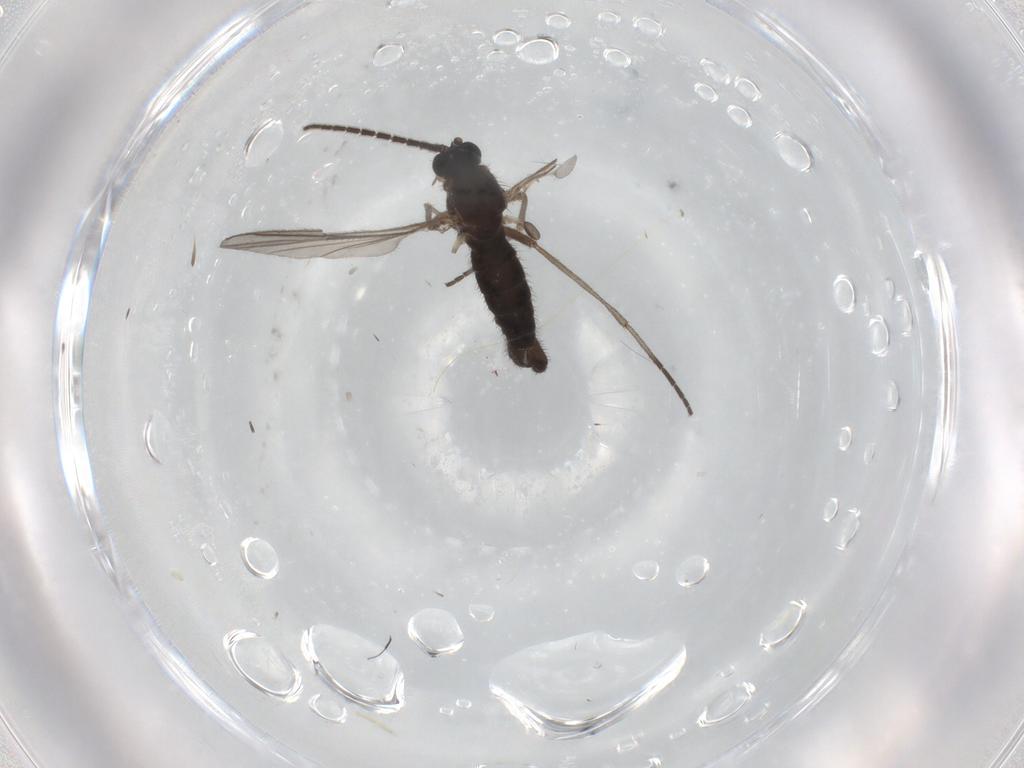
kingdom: Animalia
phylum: Arthropoda
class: Insecta
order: Diptera
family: Sciaridae
